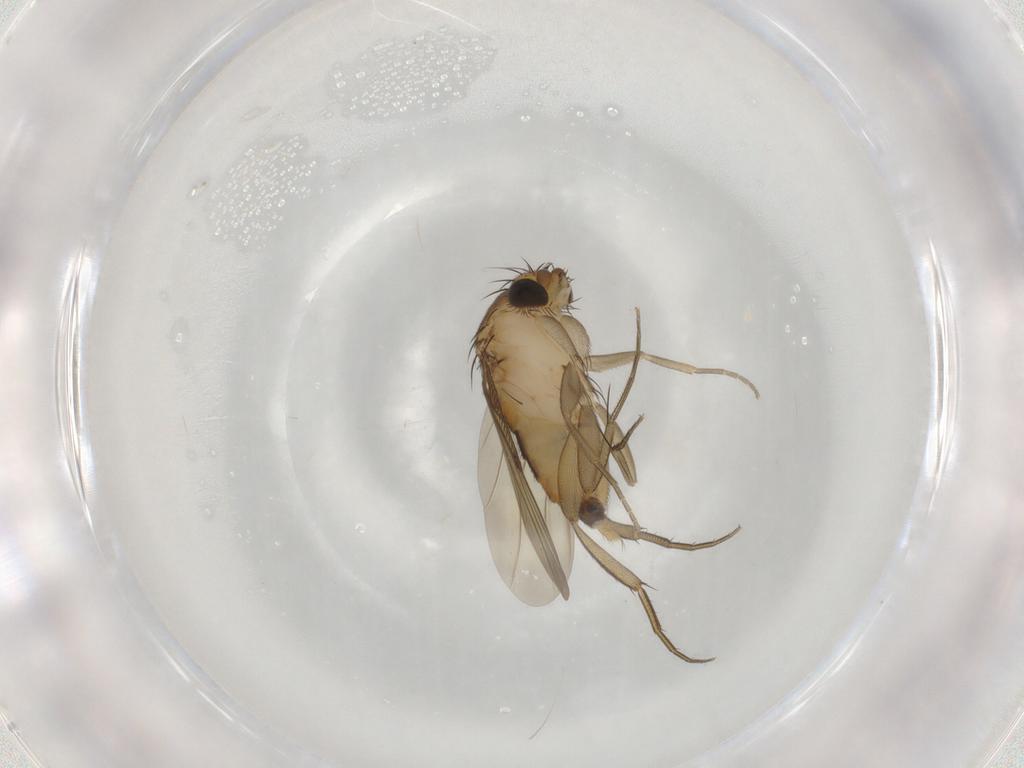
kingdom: Animalia
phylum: Arthropoda
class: Insecta
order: Diptera
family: Phoridae
